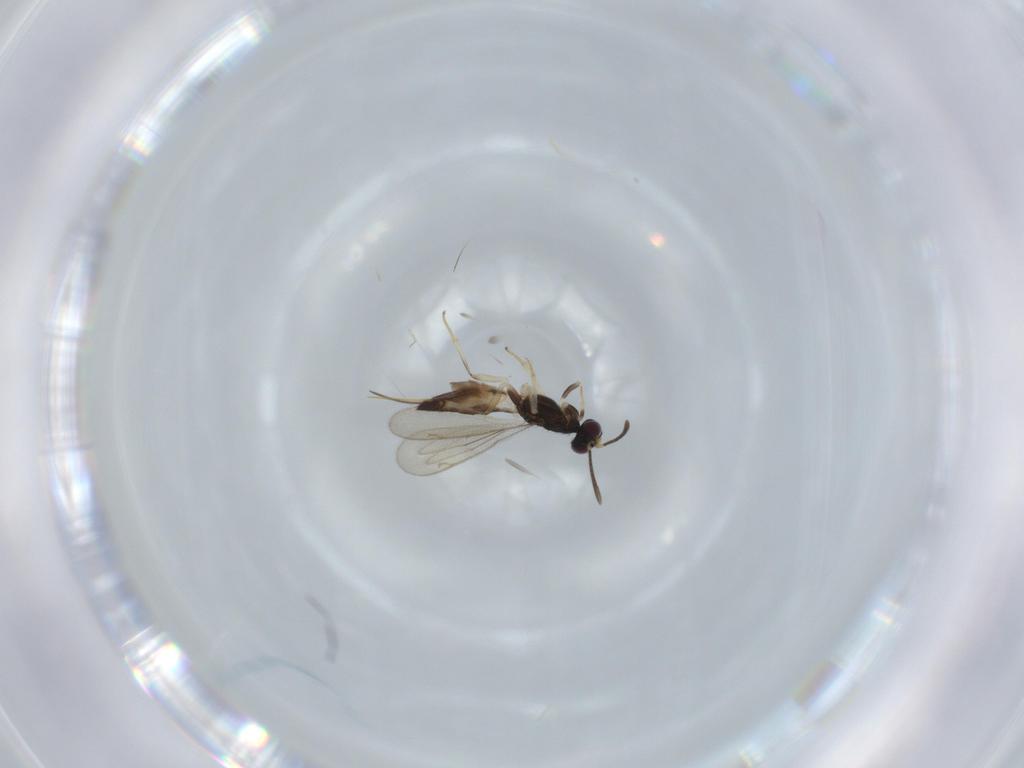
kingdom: Animalia
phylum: Arthropoda
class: Insecta
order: Hymenoptera
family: Eupelmidae
